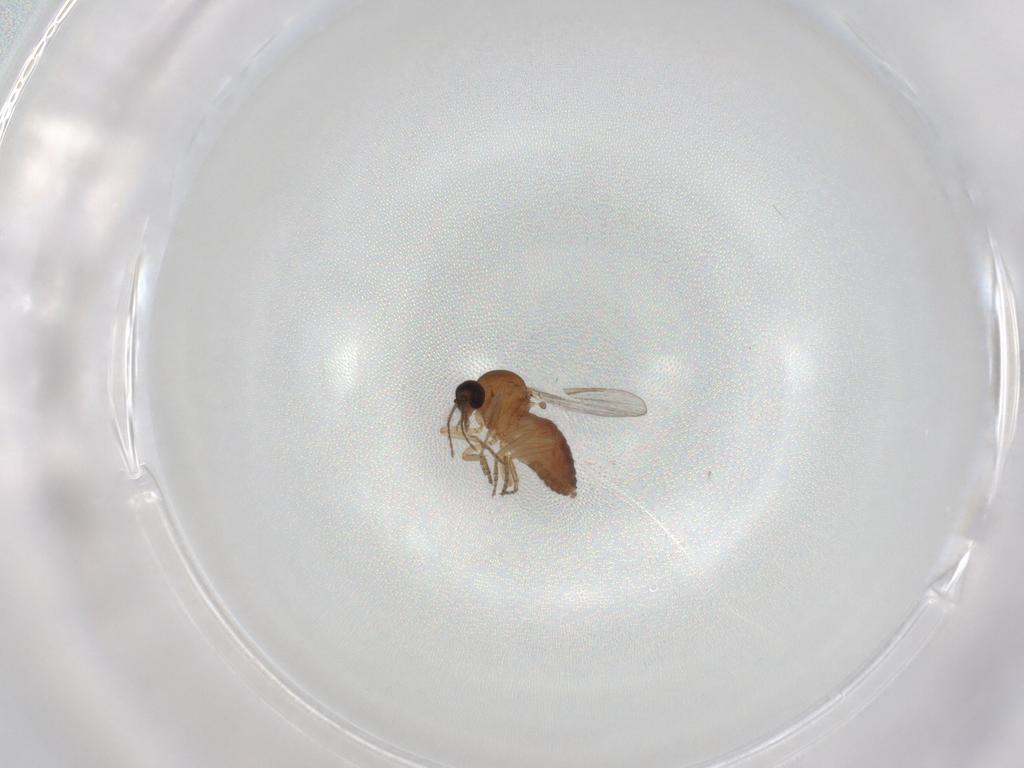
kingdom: Animalia
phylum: Arthropoda
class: Insecta
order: Diptera
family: Ceratopogonidae
